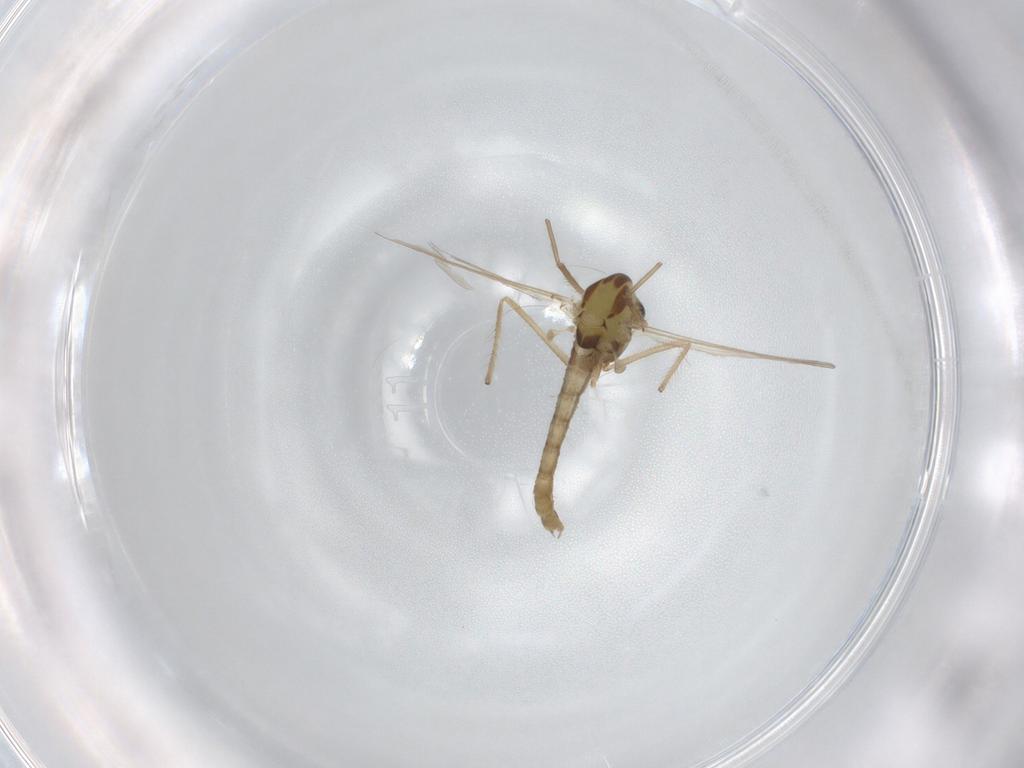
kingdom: Animalia
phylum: Arthropoda
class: Insecta
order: Diptera
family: Chironomidae
